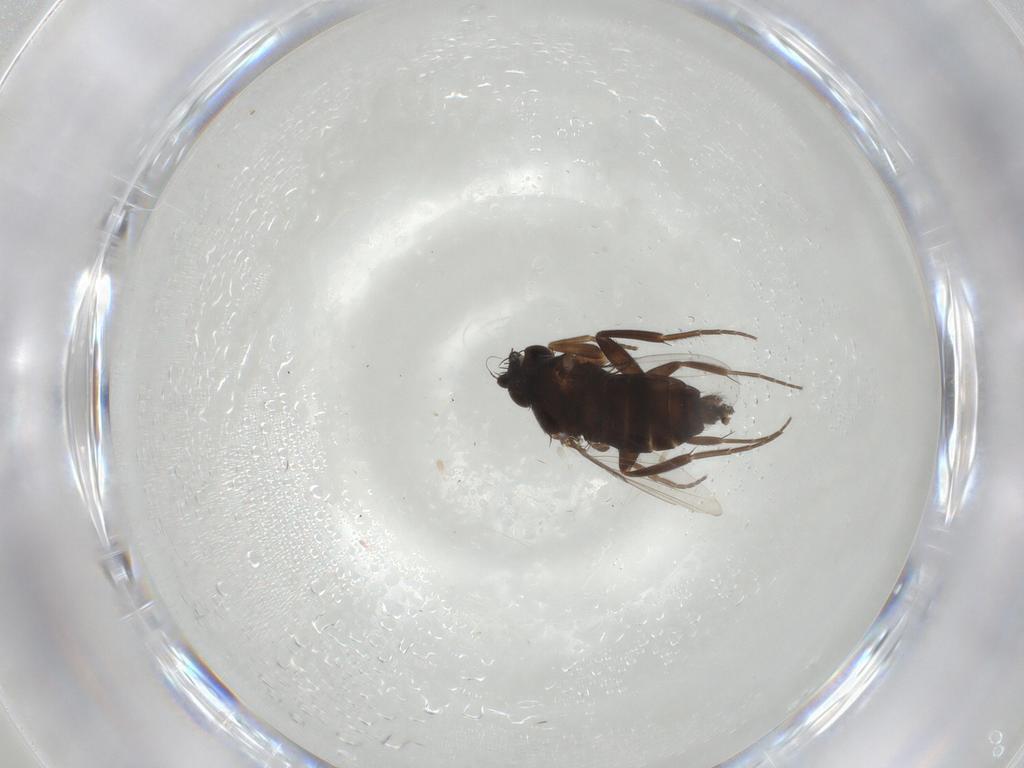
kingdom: Animalia
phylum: Arthropoda
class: Insecta
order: Diptera
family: Phoridae
